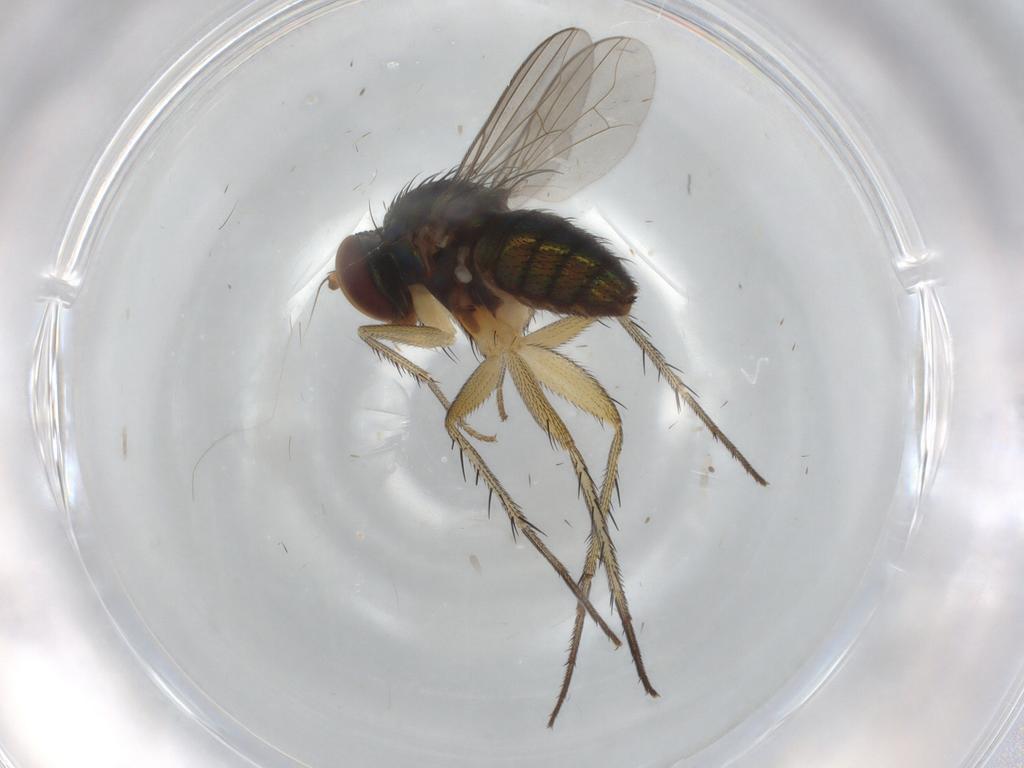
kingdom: Animalia
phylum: Arthropoda
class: Insecta
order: Diptera
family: Dolichopodidae
